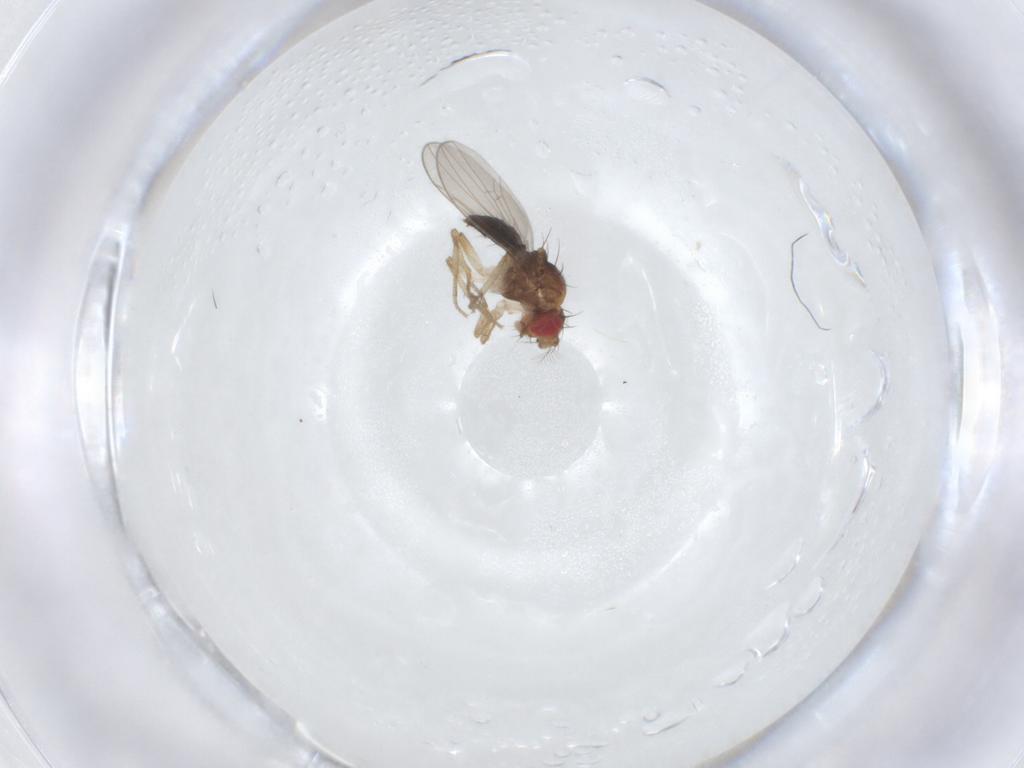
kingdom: Animalia
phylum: Arthropoda
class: Insecta
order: Diptera
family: Drosophilidae
